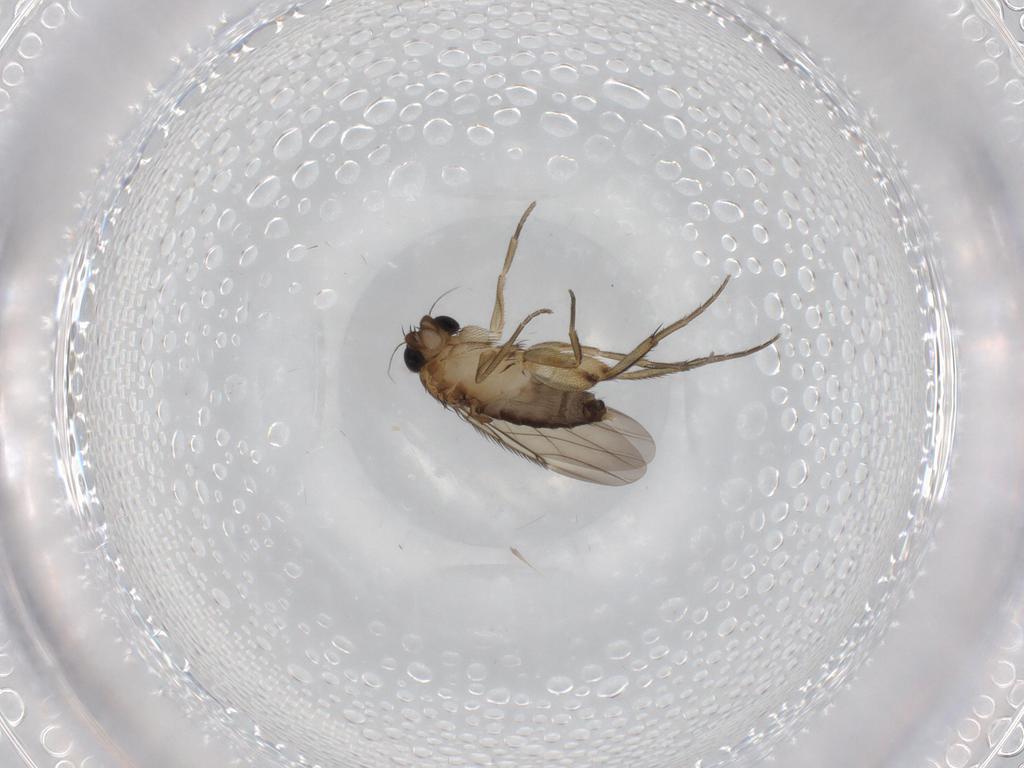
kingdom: Animalia
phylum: Arthropoda
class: Insecta
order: Diptera
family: Phoridae
